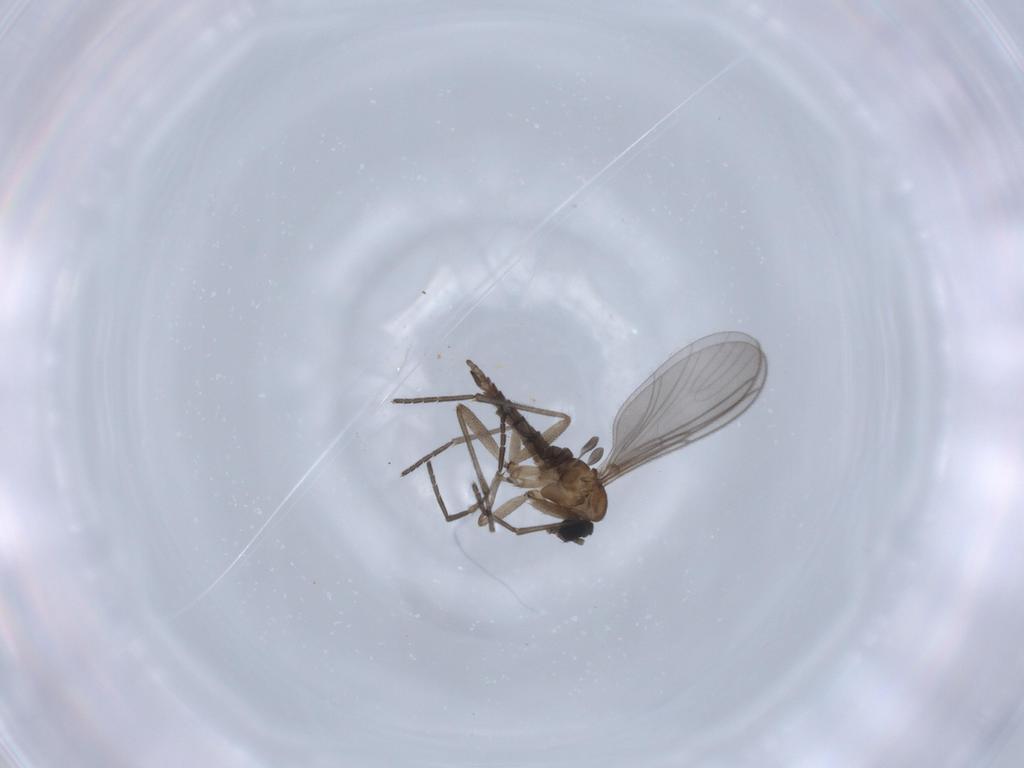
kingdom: Animalia
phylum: Arthropoda
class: Insecta
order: Diptera
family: Sciaridae
